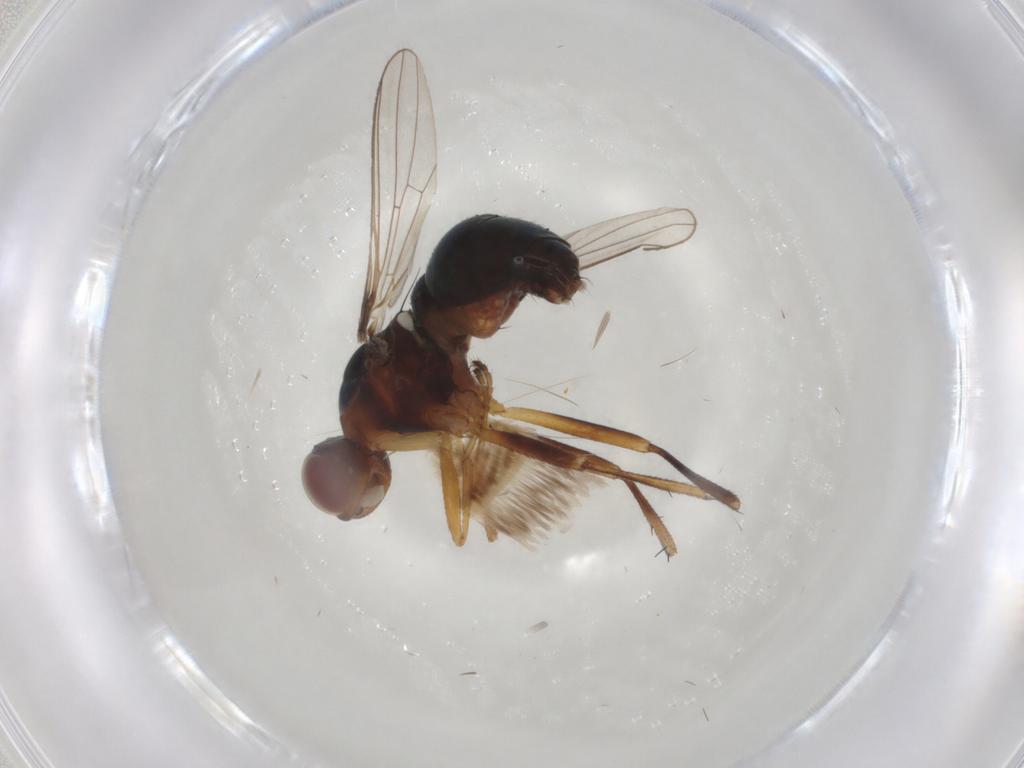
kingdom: Animalia
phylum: Arthropoda
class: Insecta
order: Diptera
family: Sepsidae
